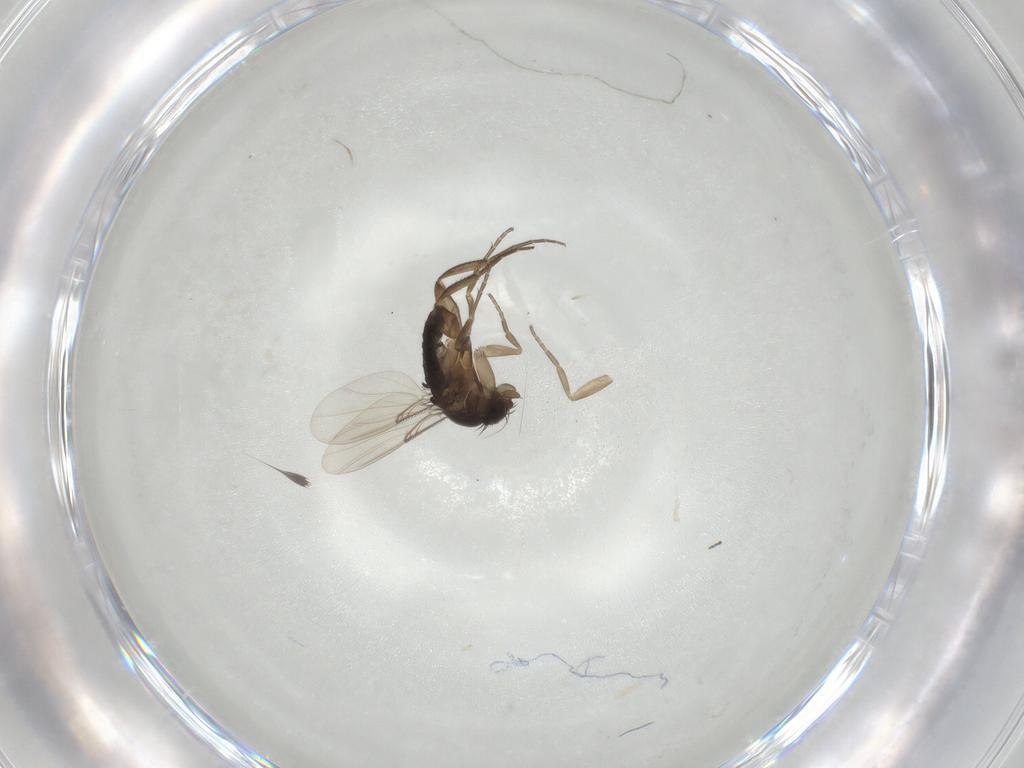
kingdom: Animalia
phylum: Arthropoda
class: Insecta
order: Diptera
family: Phoridae
